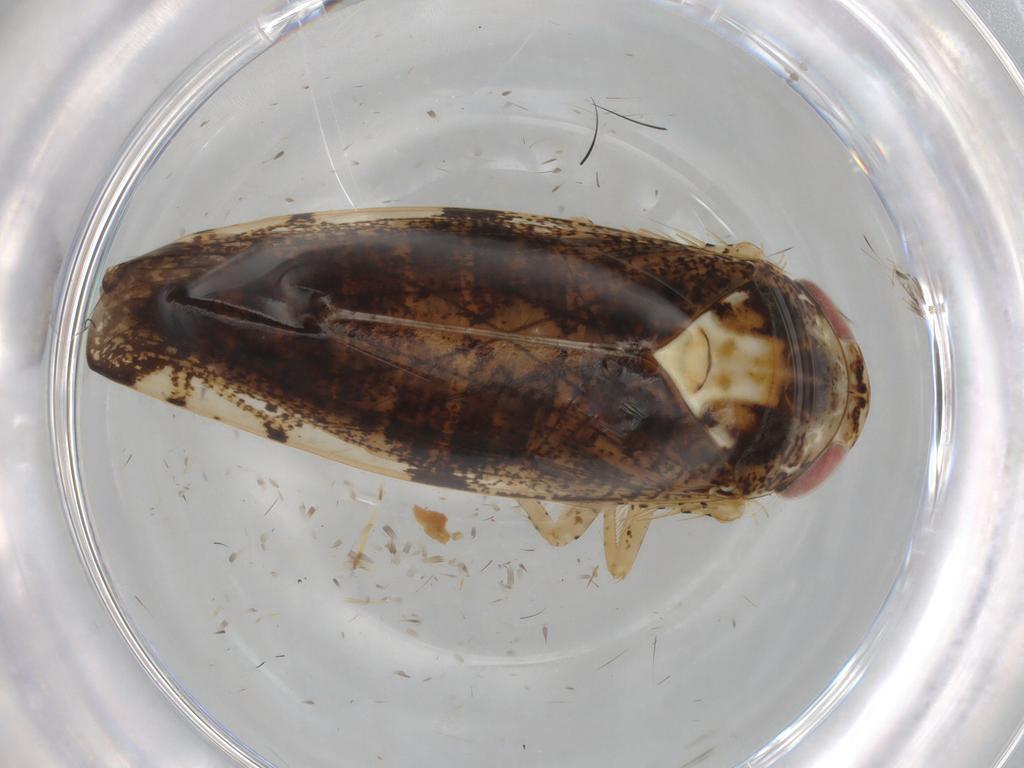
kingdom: Animalia
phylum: Arthropoda
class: Insecta
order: Hemiptera
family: Cicadellidae
